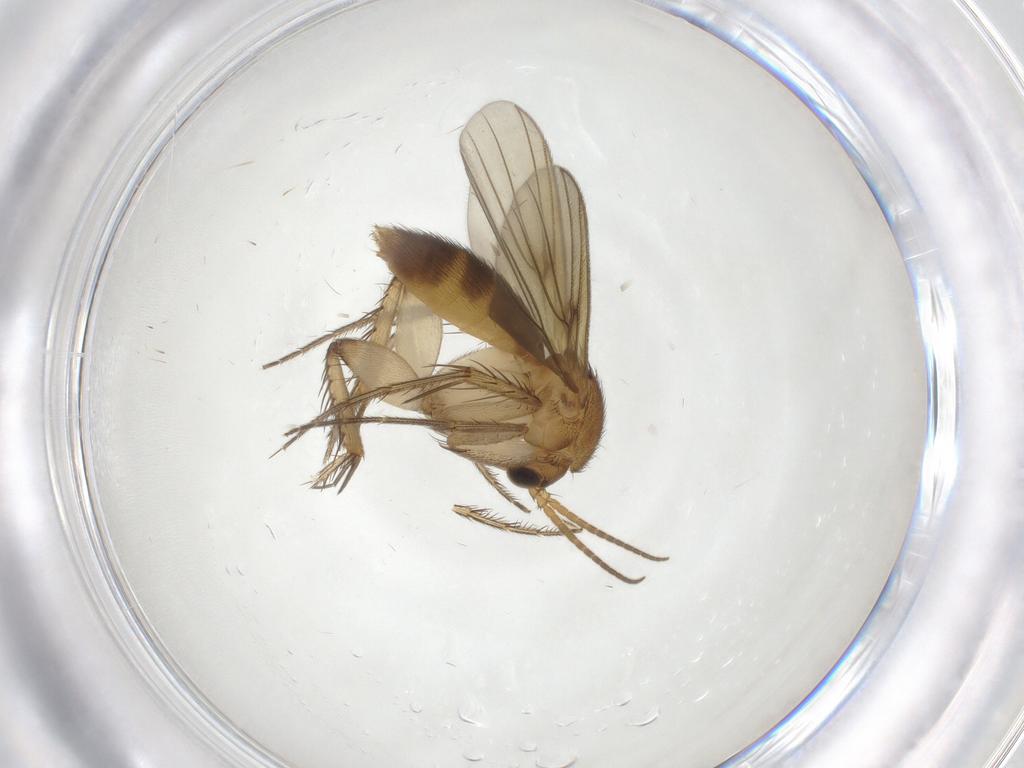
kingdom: Animalia
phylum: Arthropoda
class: Insecta
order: Diptera
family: Mycetophilidae
